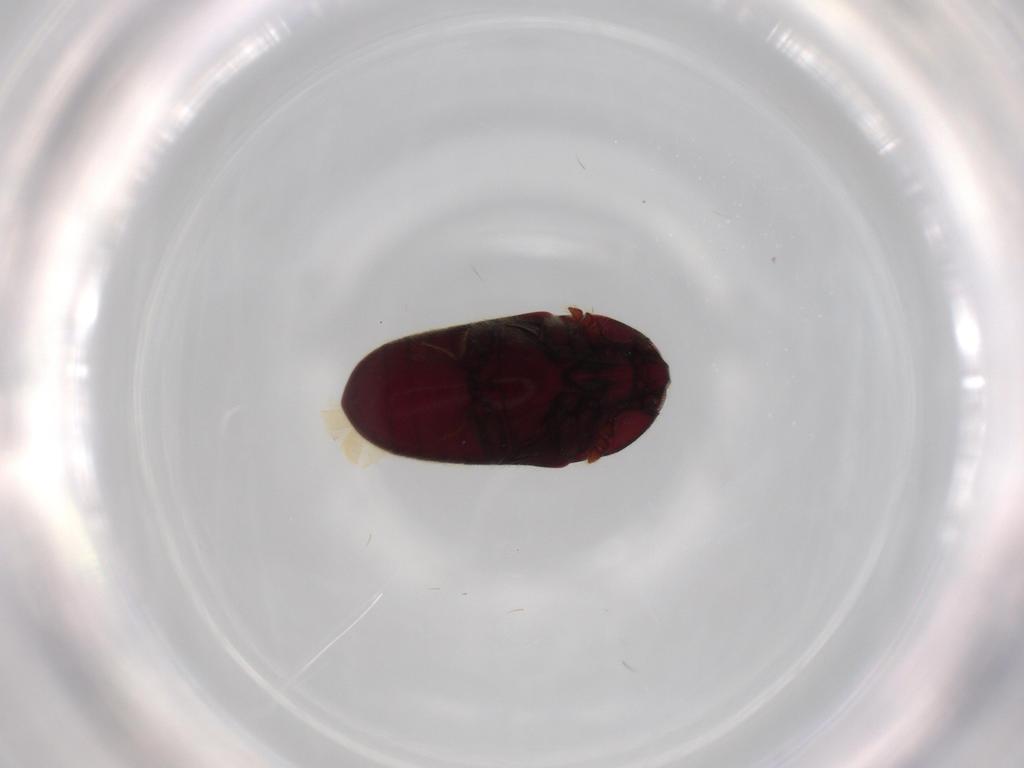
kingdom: Animalia
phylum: Arthropoda
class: Insecta
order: Coleoptera
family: Throscidae
